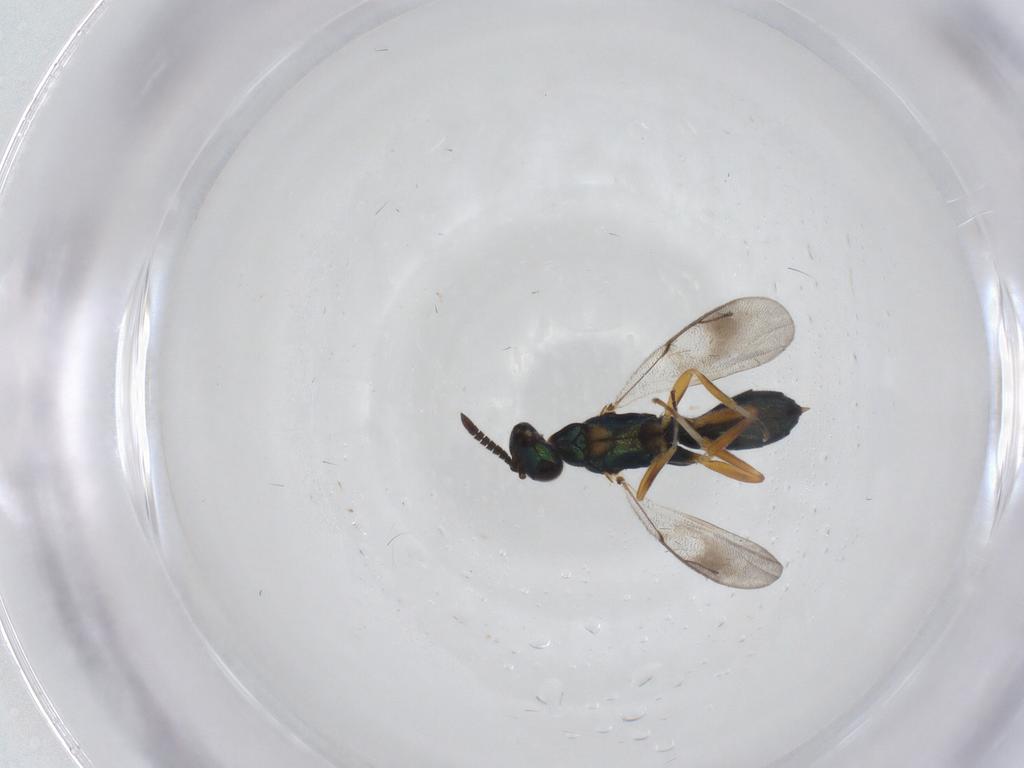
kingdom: Animalia
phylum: Arthropoda
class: Insecta
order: Hymenoptera
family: Cleonyminae
